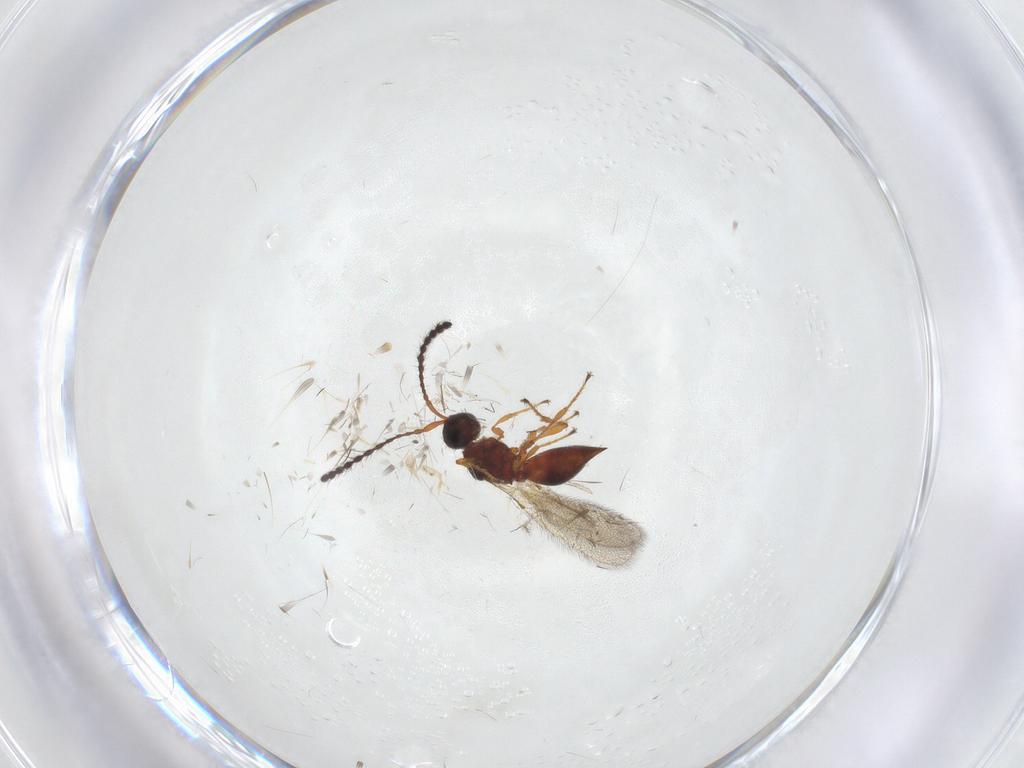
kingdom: Animalia
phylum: Arthropoda
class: Insecta
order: Hymenoptera
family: Diapriidae
